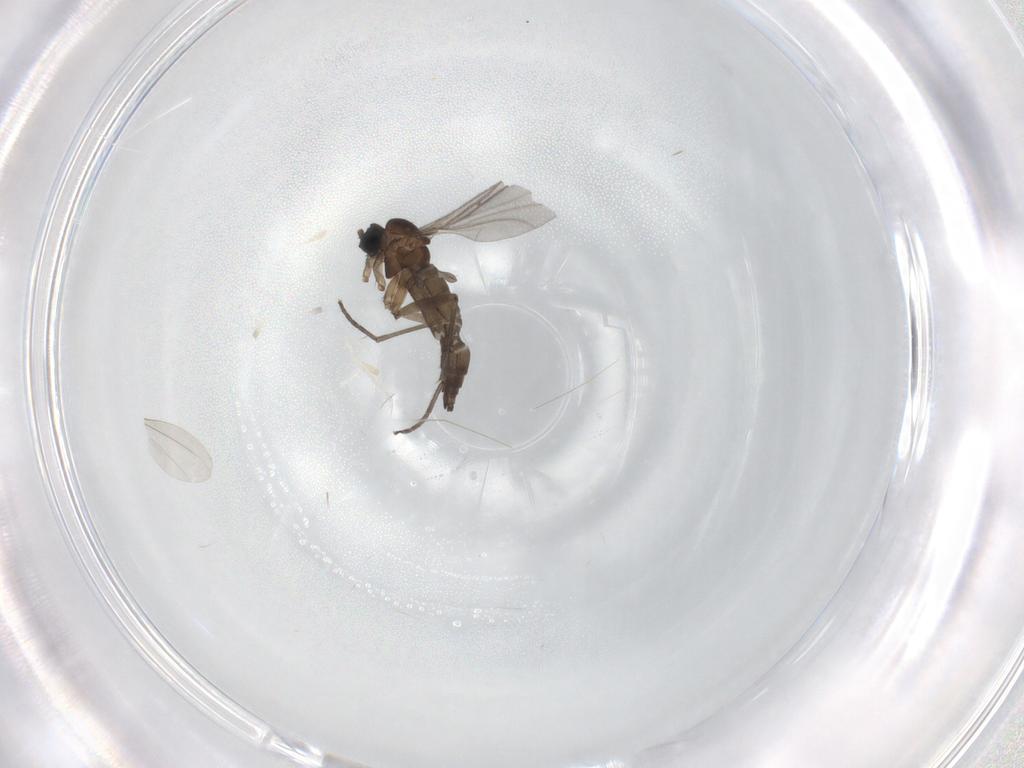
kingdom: Animalia
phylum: Arthropoda
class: Insecta
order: Diptera
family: Sciaridae
